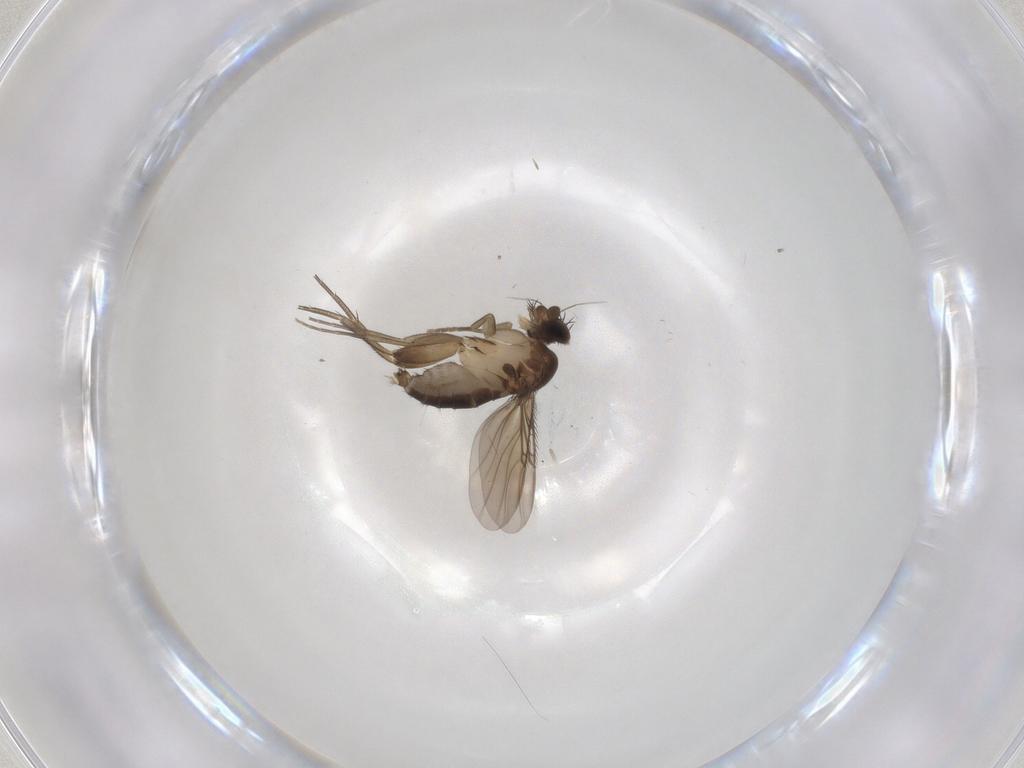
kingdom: Animalia
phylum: Arthropoda
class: Insecta
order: Diptera
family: Phoridae
